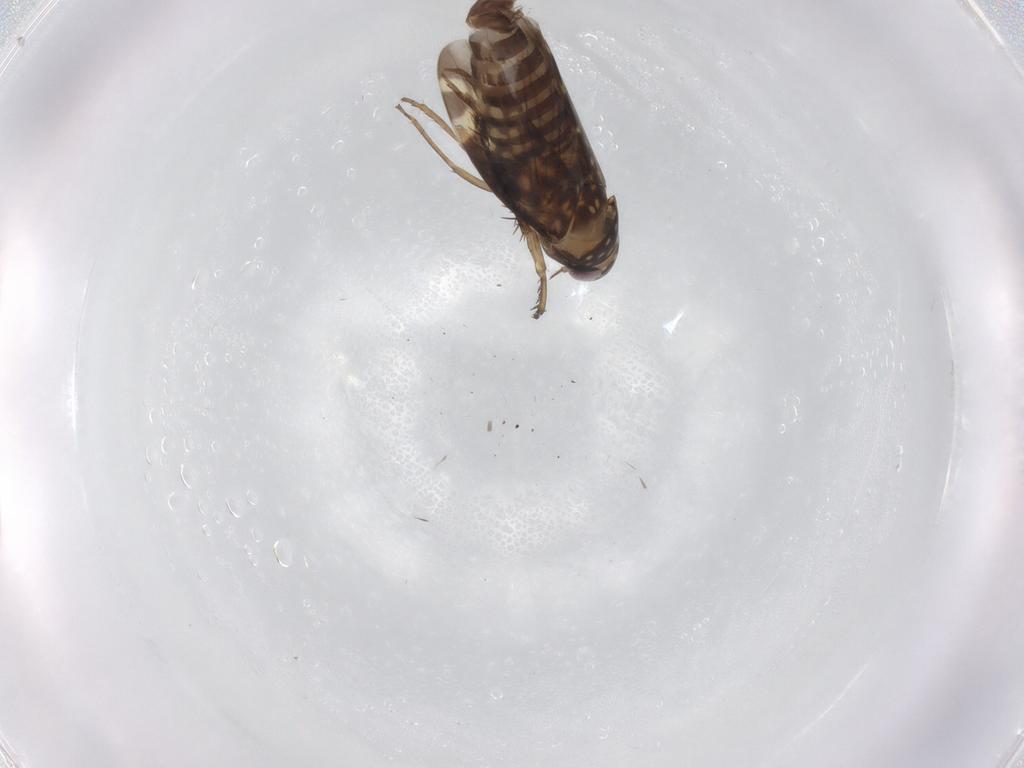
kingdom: Animalia
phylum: Arthropoda
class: Insecta
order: Hemiptera
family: Cicadellidae
